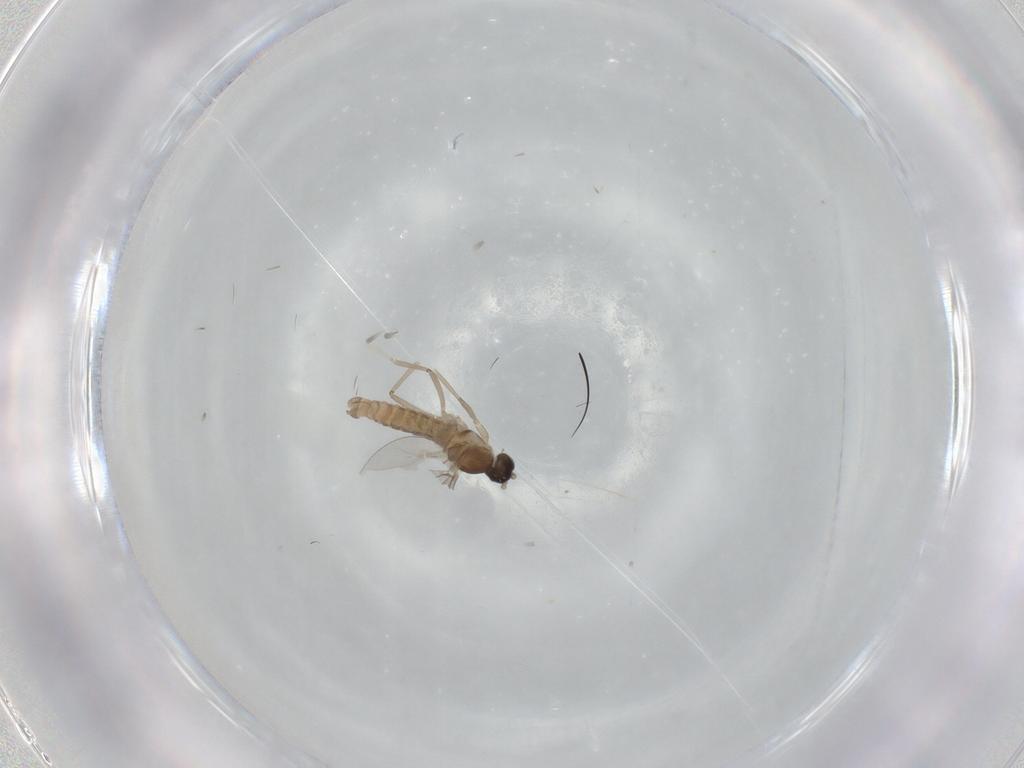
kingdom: Animalia
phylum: Arthropoda
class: Insecta
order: Diptera
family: Cecidomyiidae
